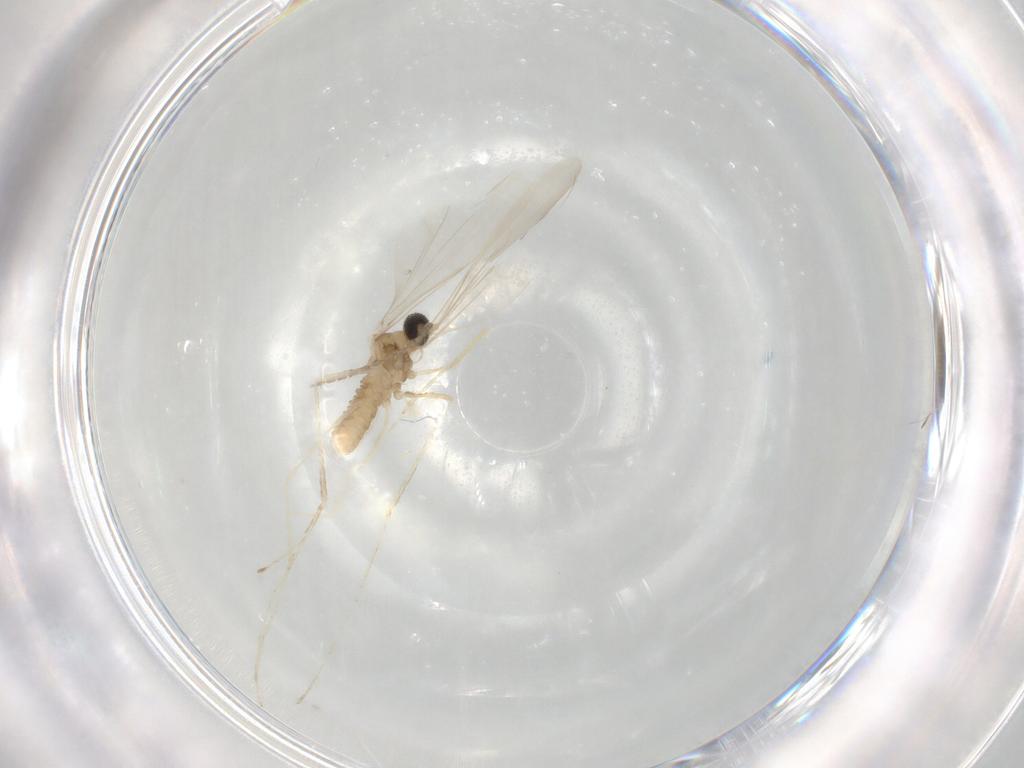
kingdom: Animalia
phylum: Arthropoda
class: Insecta
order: Diptera
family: Cecidomyiidae
